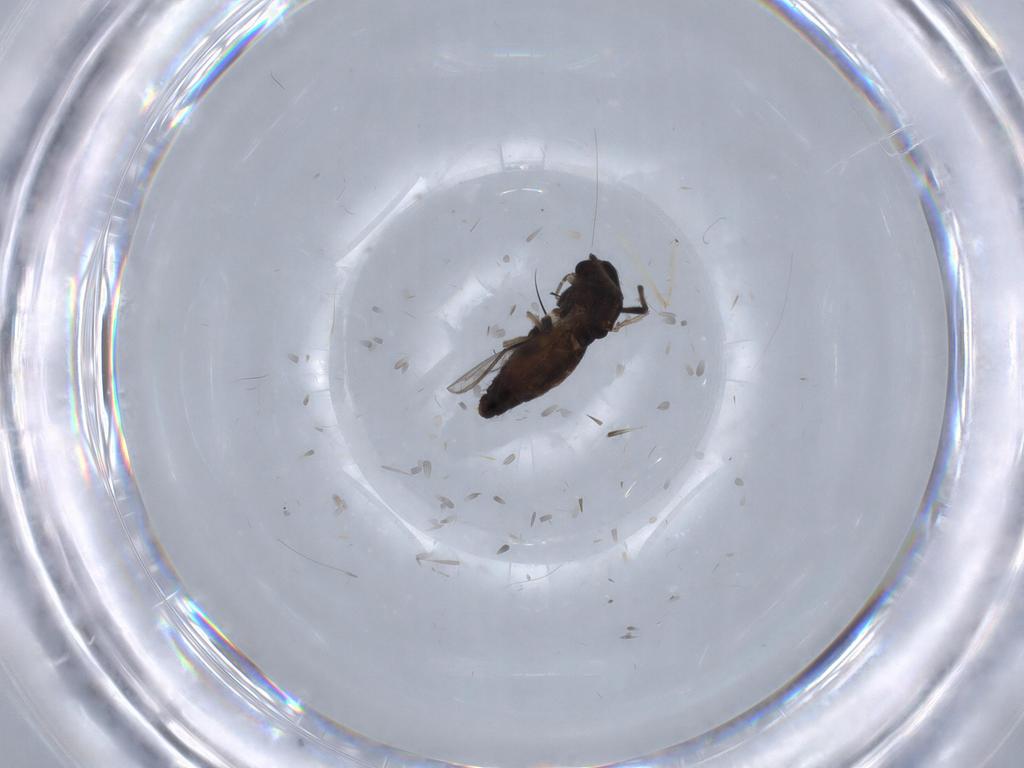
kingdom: Animalia
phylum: Arthropoda
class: Insecta
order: Diptera
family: Chironomidae
